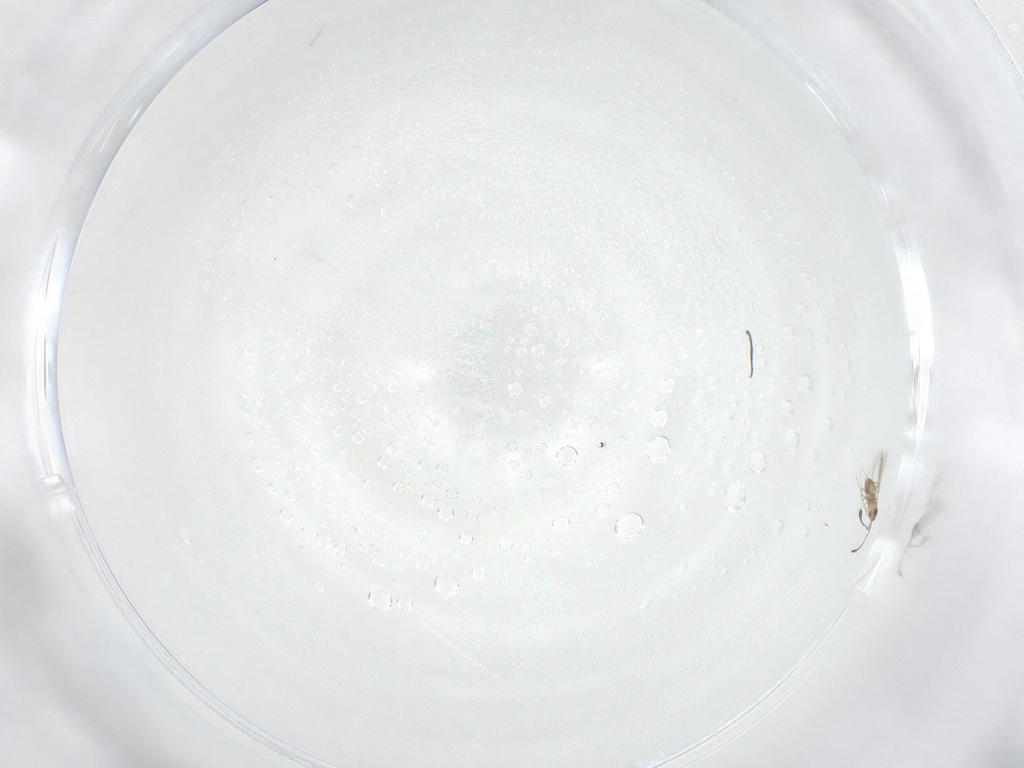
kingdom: Animalia
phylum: Arthropoda
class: Insecta
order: Hymenoptera
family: Mymaridae
